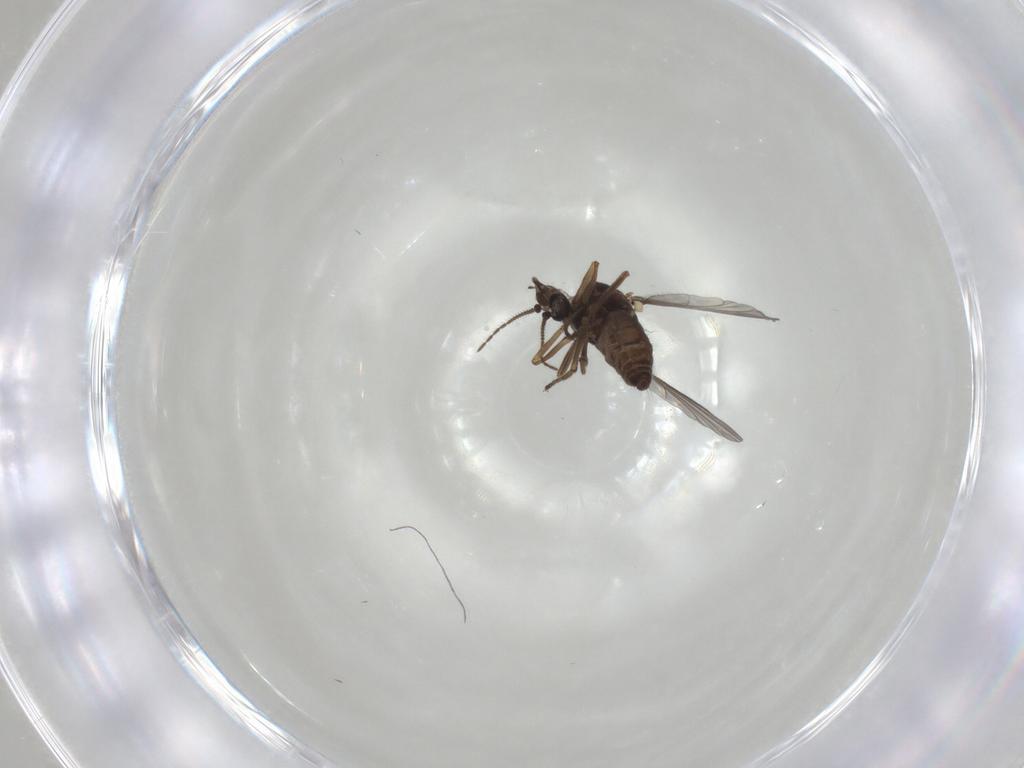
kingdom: Animalia
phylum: Arthropoda
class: Insecta
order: Diptera
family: Ceratopogonidae
